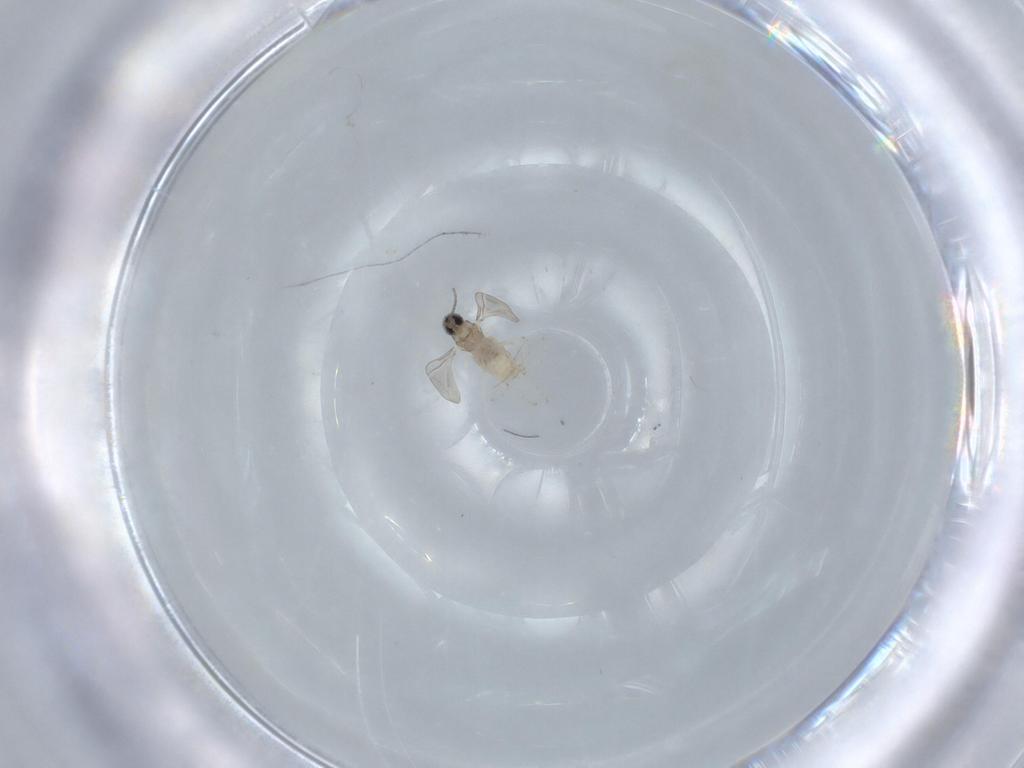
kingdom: Animalia
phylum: Arthropoda
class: Insecta
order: Diptera
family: Cecidomyiidae
